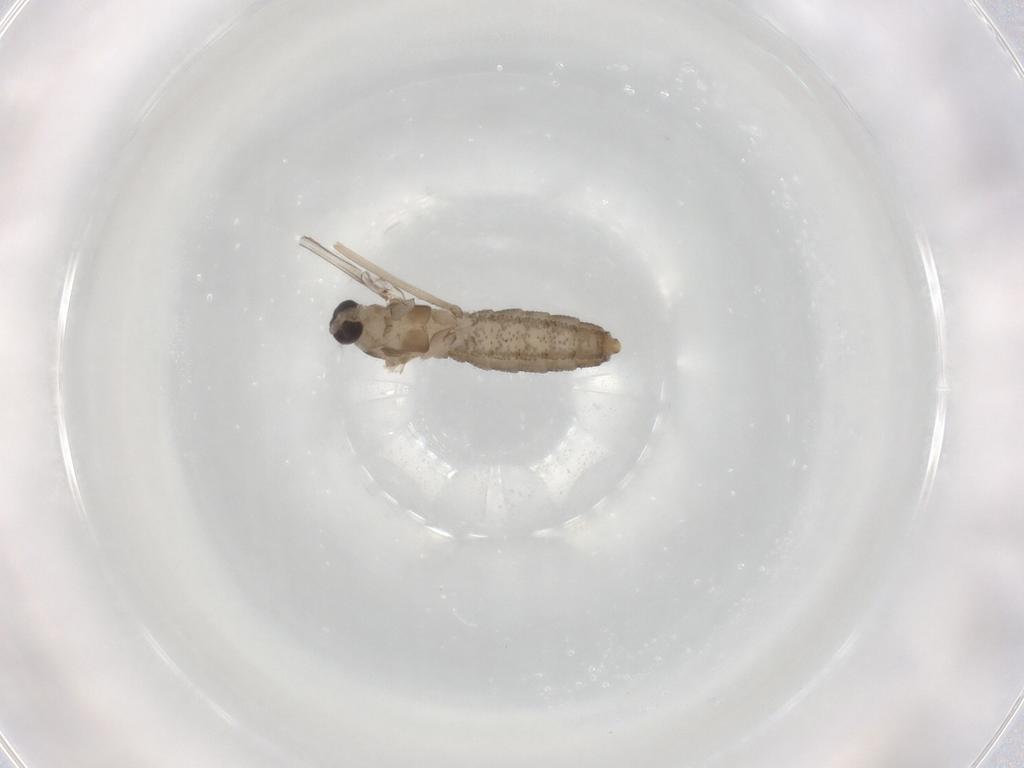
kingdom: Animalia
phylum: Arthropoda
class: Insecta
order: Diptera
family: Cecidomyiidae
